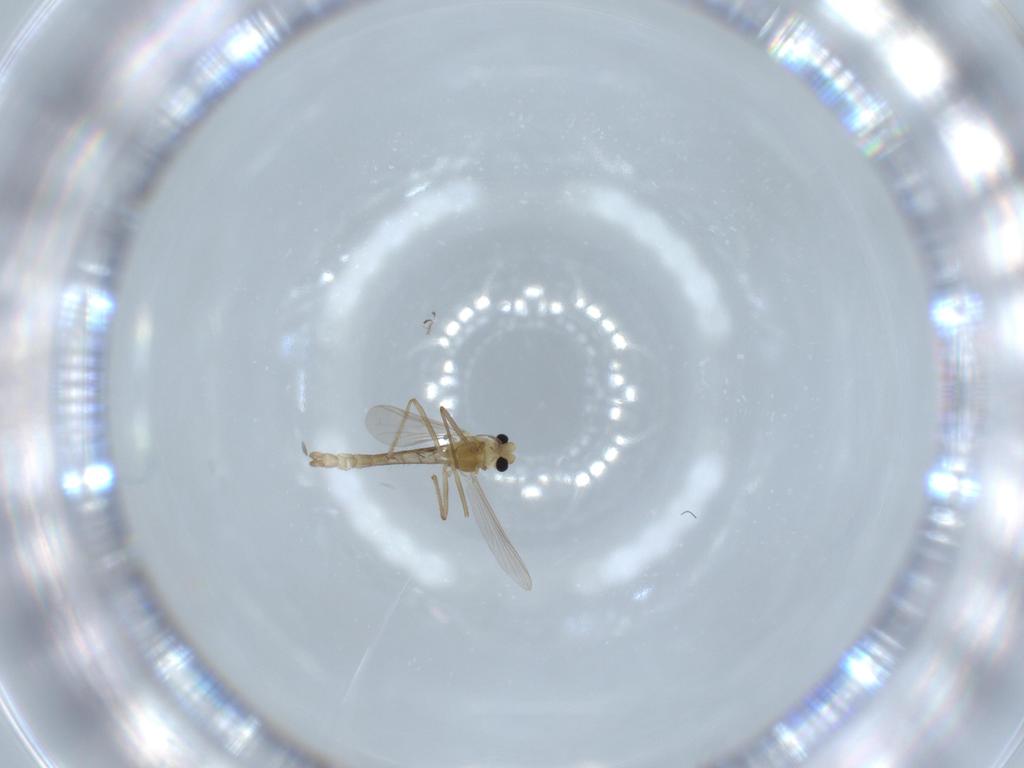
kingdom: Animalia
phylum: Arthropoda
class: Insecta
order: Diptera
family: Chironomidae
